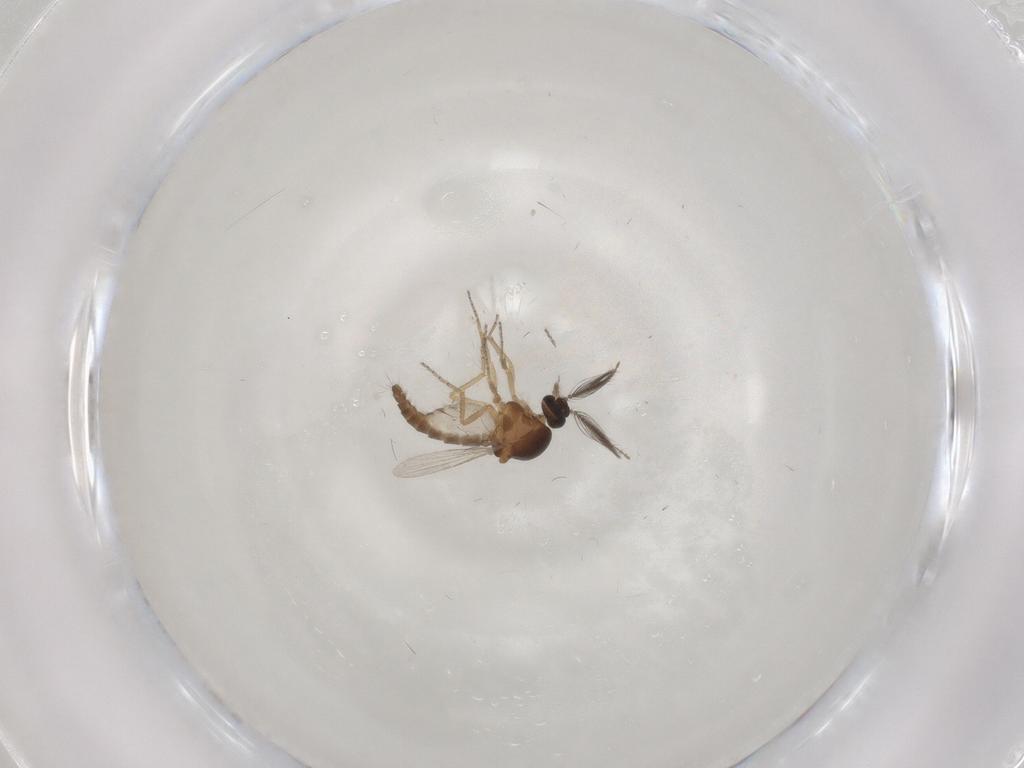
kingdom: Animalia
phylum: Arthropoda
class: Insecta
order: Diptera
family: Ceratopogonidae
